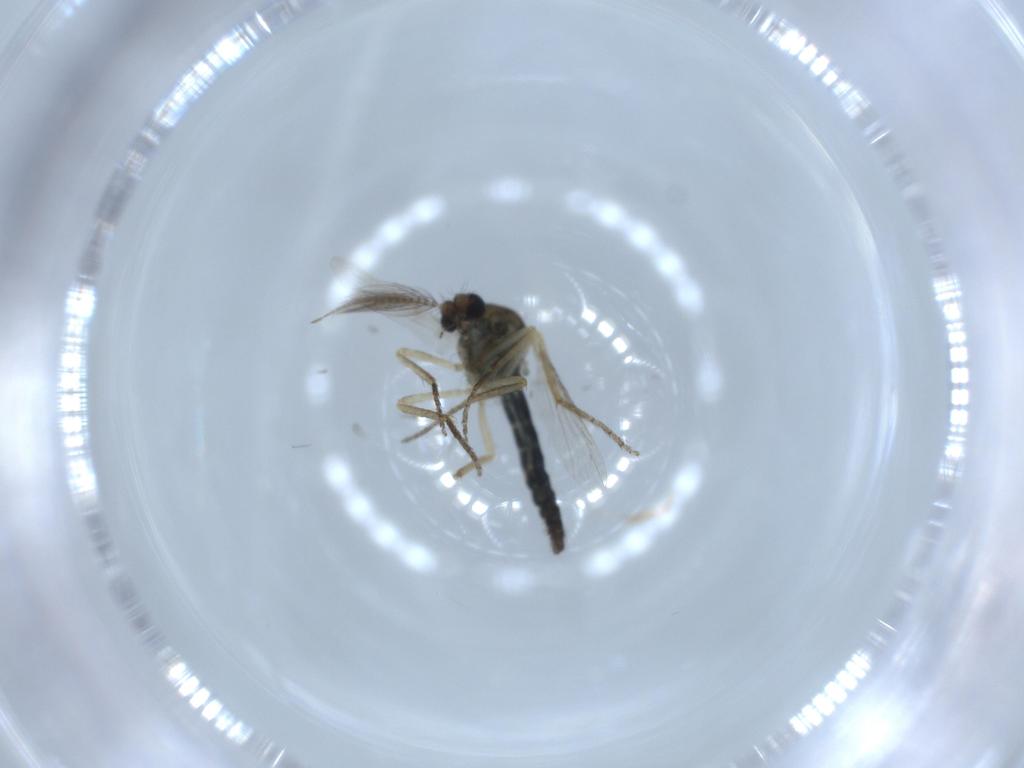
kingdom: Animalia
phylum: Arthropoda
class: Insecta
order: Diptera
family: Ceratopogonidae
